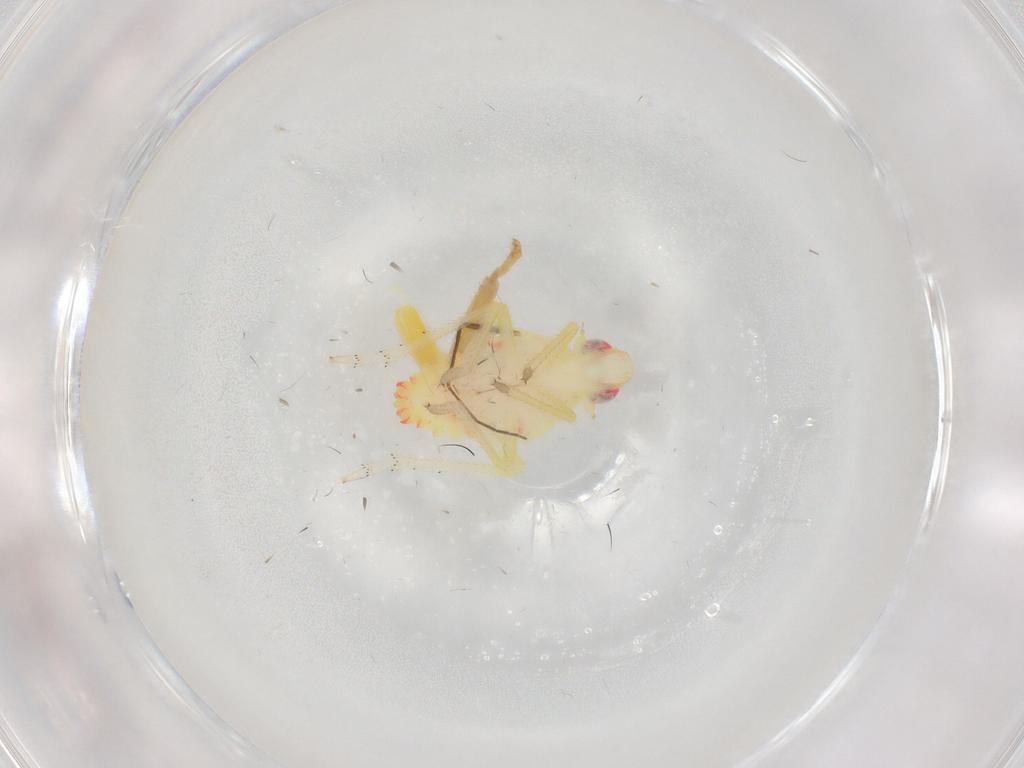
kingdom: Animalia
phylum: Arthropoda
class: Insecta
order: Hemiptera
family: Tropiduchidae
